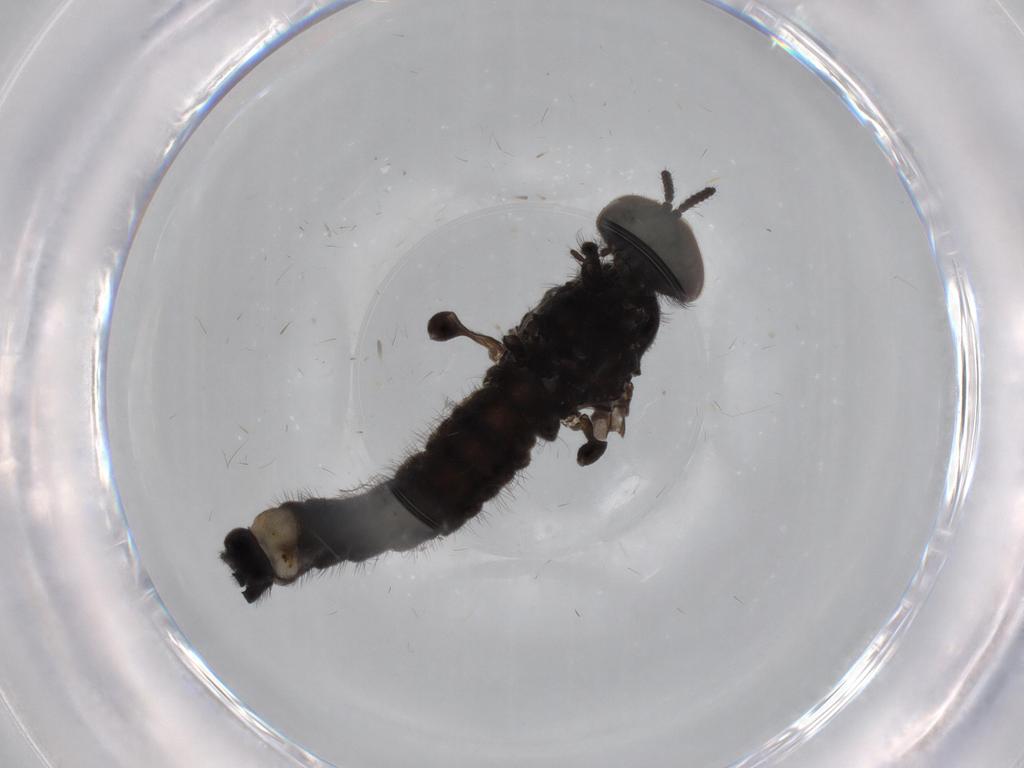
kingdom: Animalia
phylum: Arthropoda
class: Insecta
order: Diptera
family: Sciaridae
